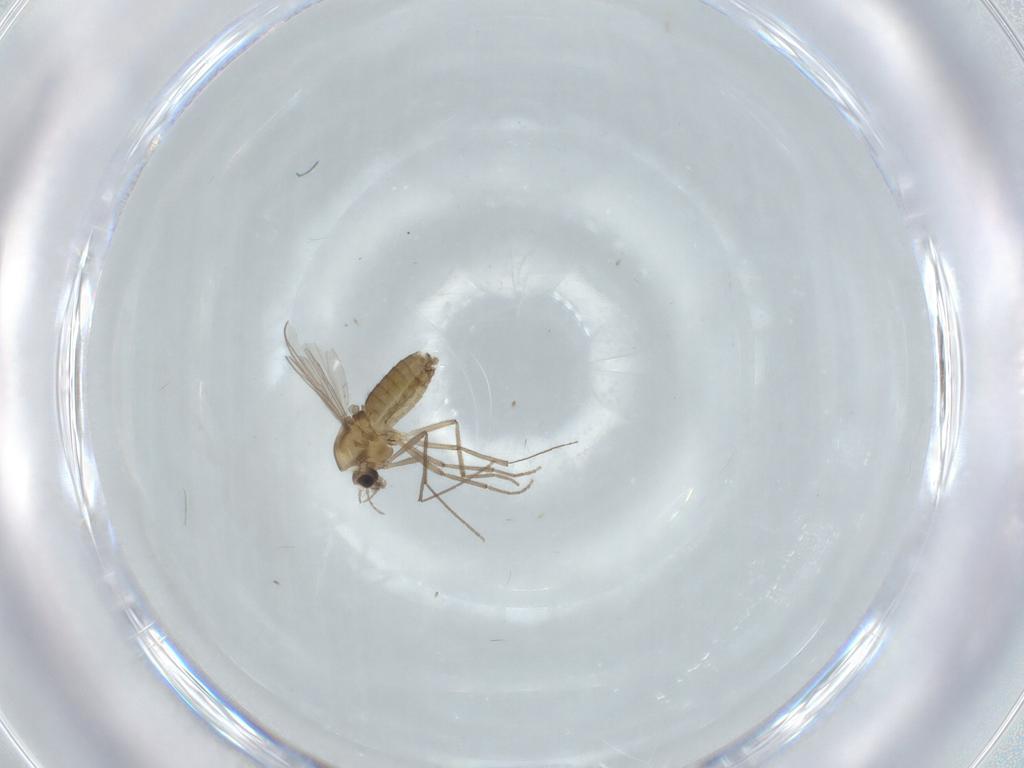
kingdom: Animalia
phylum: Arthropoda
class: Insecta
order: Diptera
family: Chironomidae
